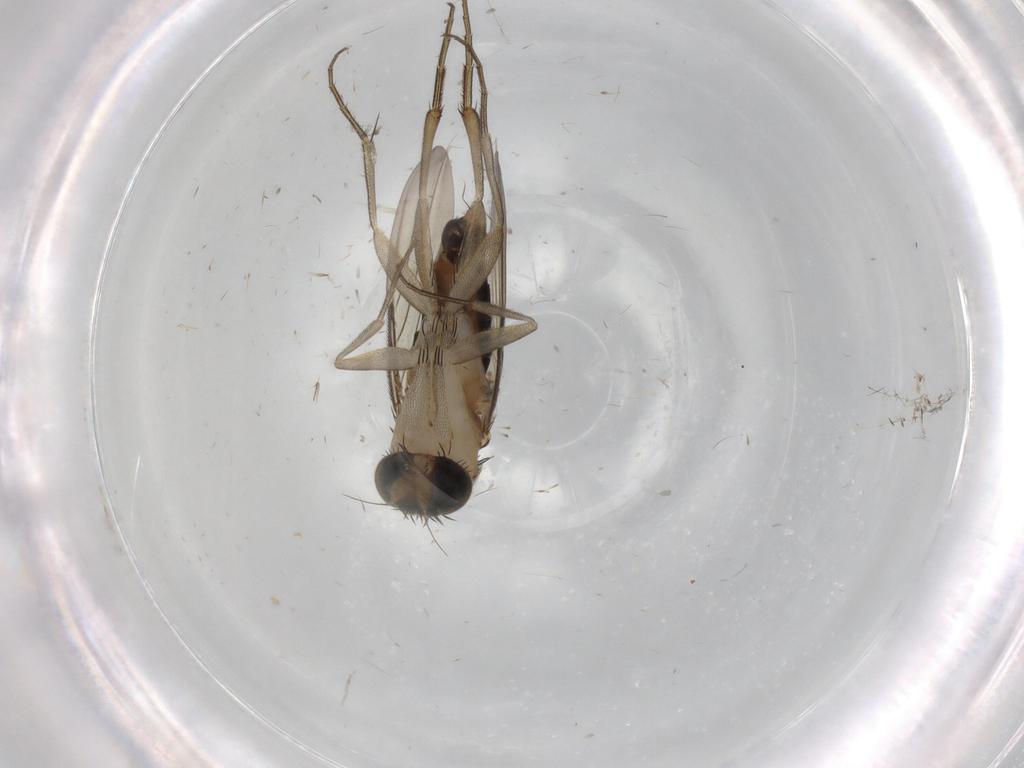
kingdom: Animalia
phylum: Arthropoda
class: Insecta
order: Diptera
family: Phoridae
